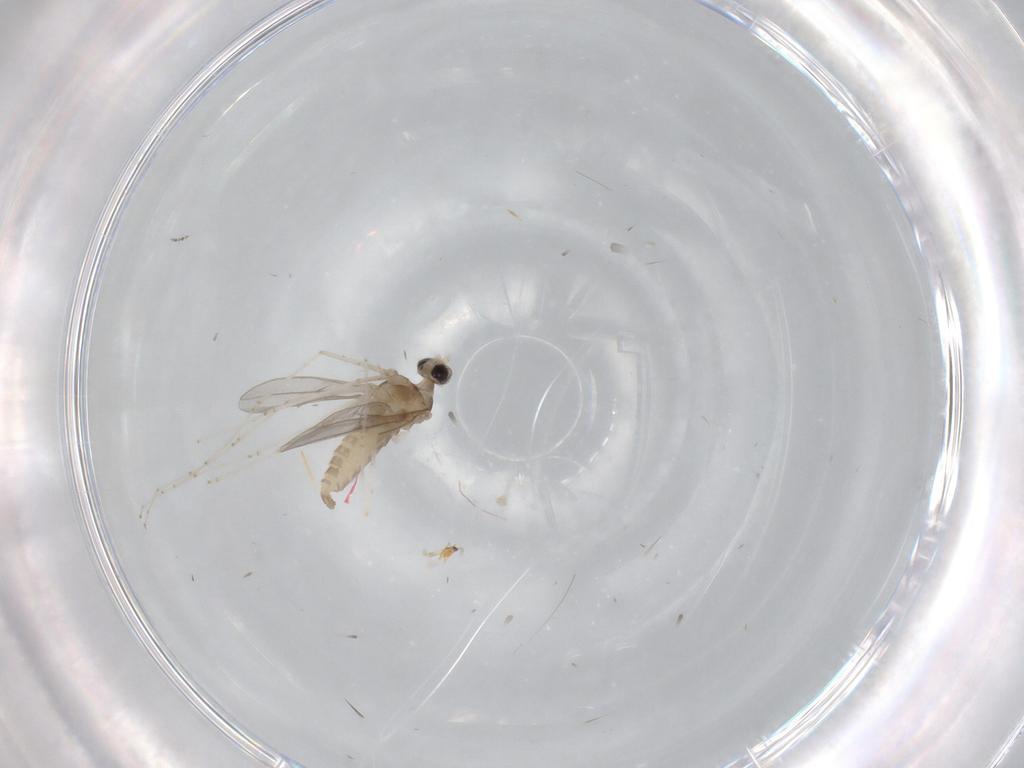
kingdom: Animalia
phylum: Arthropoda
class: Insecta
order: Diptera
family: Cecidomyiidae
